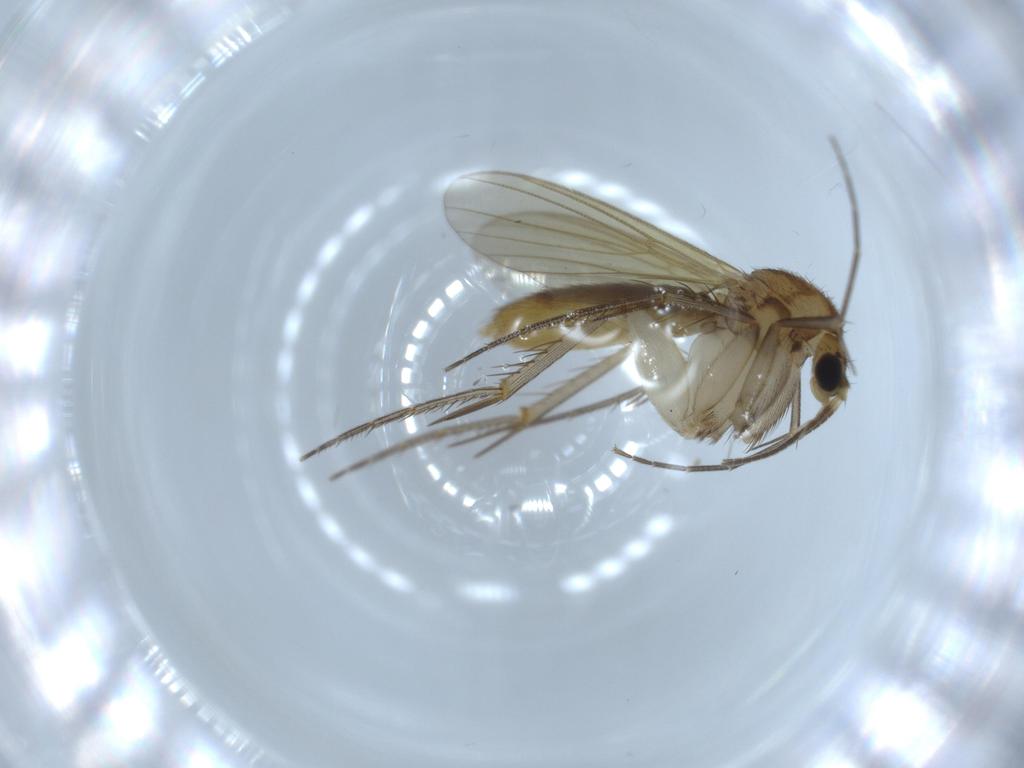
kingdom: Animalia
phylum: Arthropoda
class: Insecta
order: Diptera
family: Mycetophilidae
